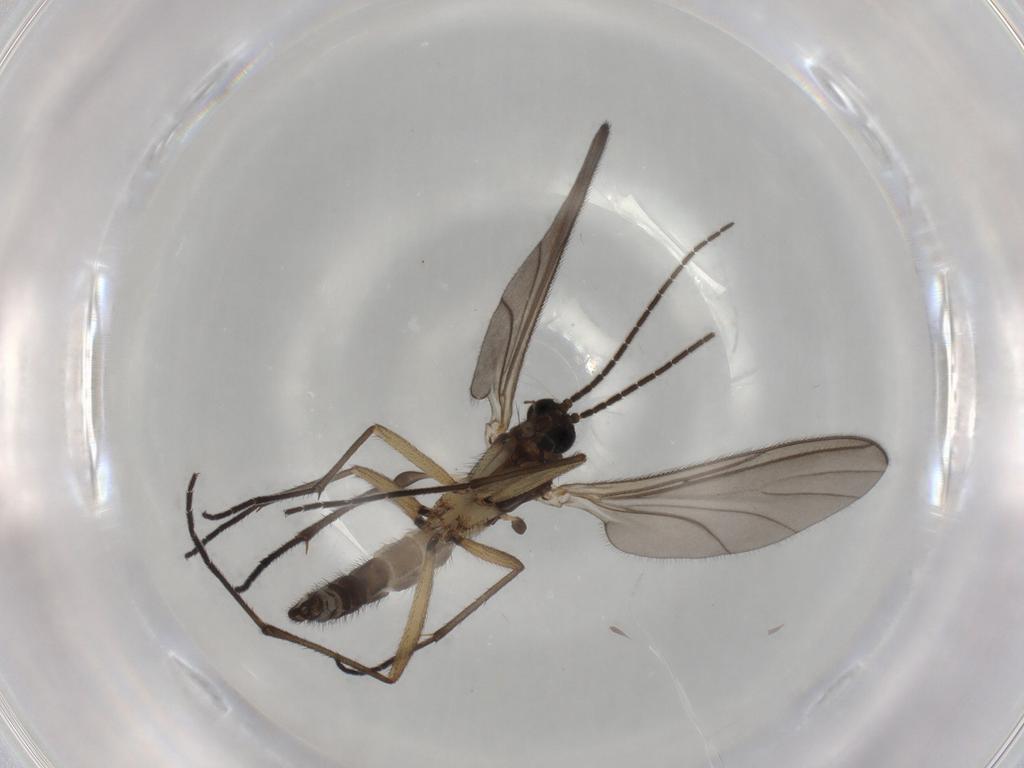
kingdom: Animalia
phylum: Arthropoda
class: Insecta
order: Diptera
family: Sciaridae
